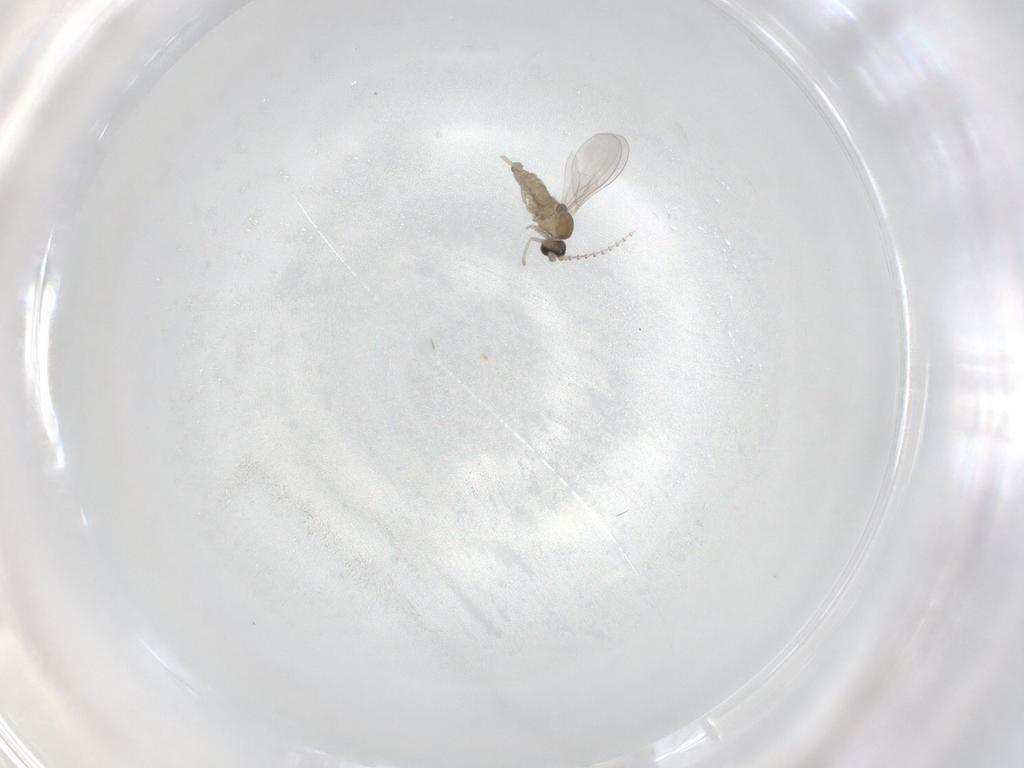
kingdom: Animalia
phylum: Arthropoda
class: Insecta
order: Diptera
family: Cecidomyiidae
